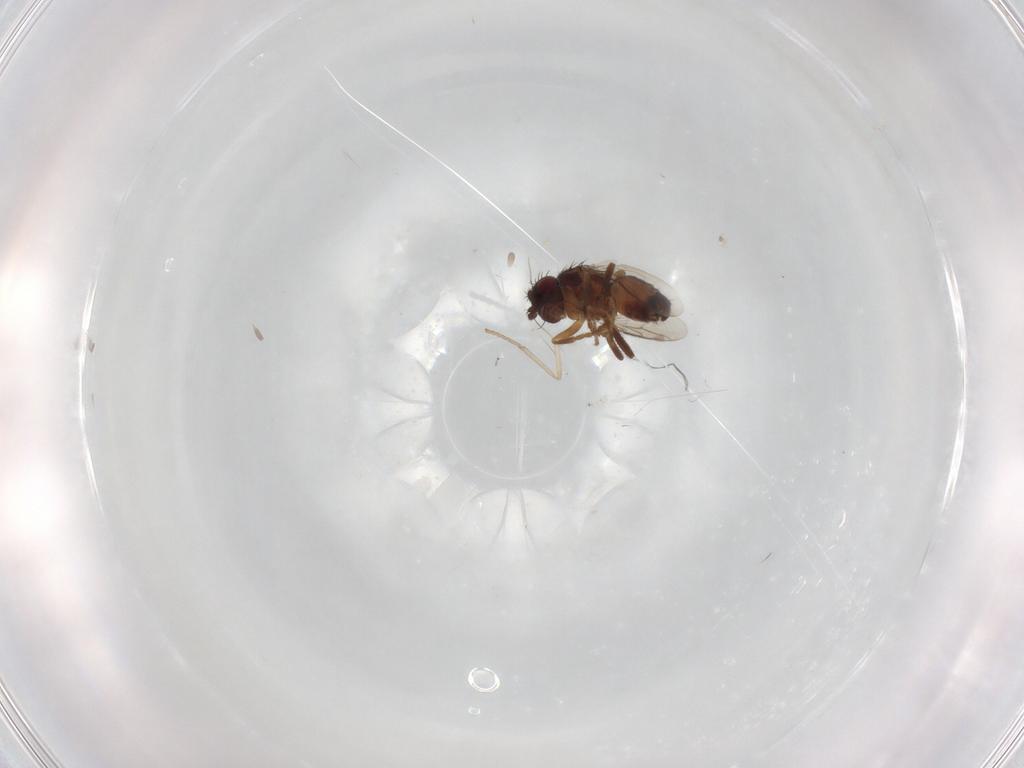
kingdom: Animalia
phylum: Arthropoda
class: Insecta
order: Diptera
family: Sphaeroceridae
